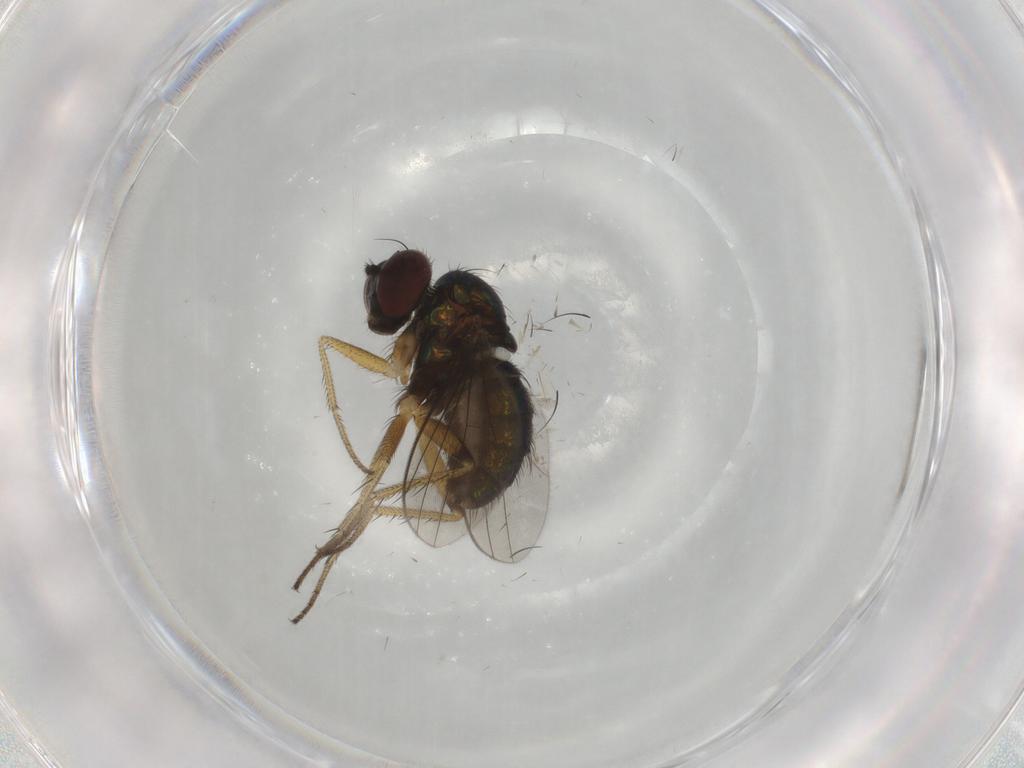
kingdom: Animalia
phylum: Arthropoda
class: Insecta
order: Diptera
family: Dolichopodidae
